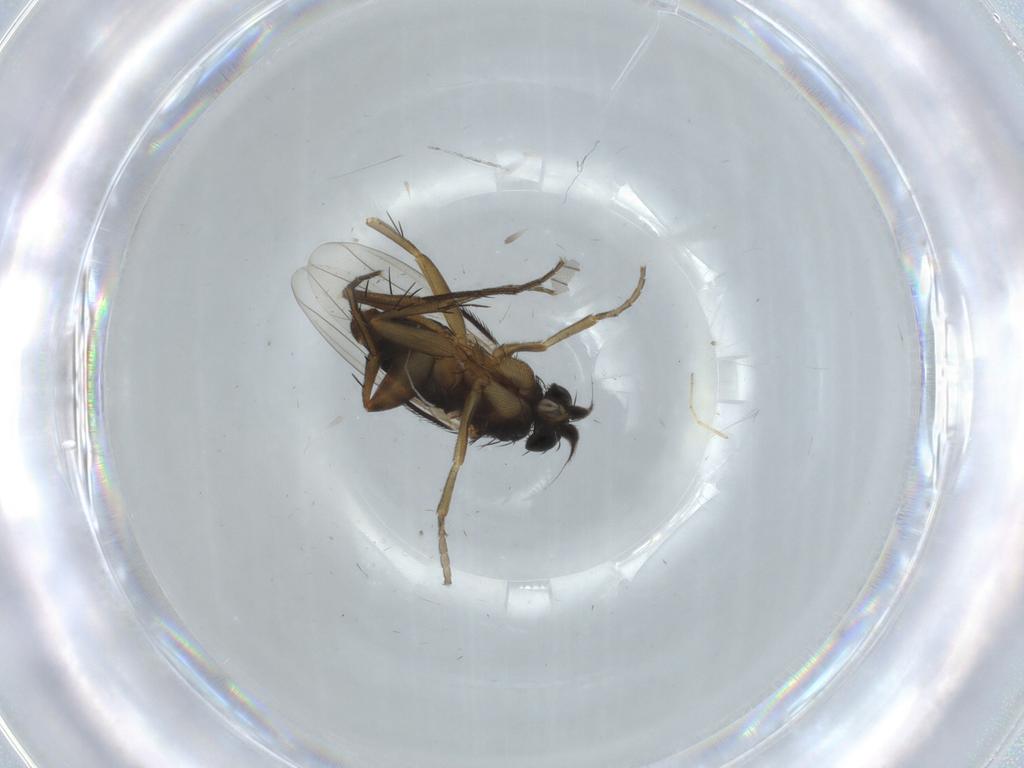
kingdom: Animalia
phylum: Arthropoda
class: Insecta
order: Diptera
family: Phoridae
